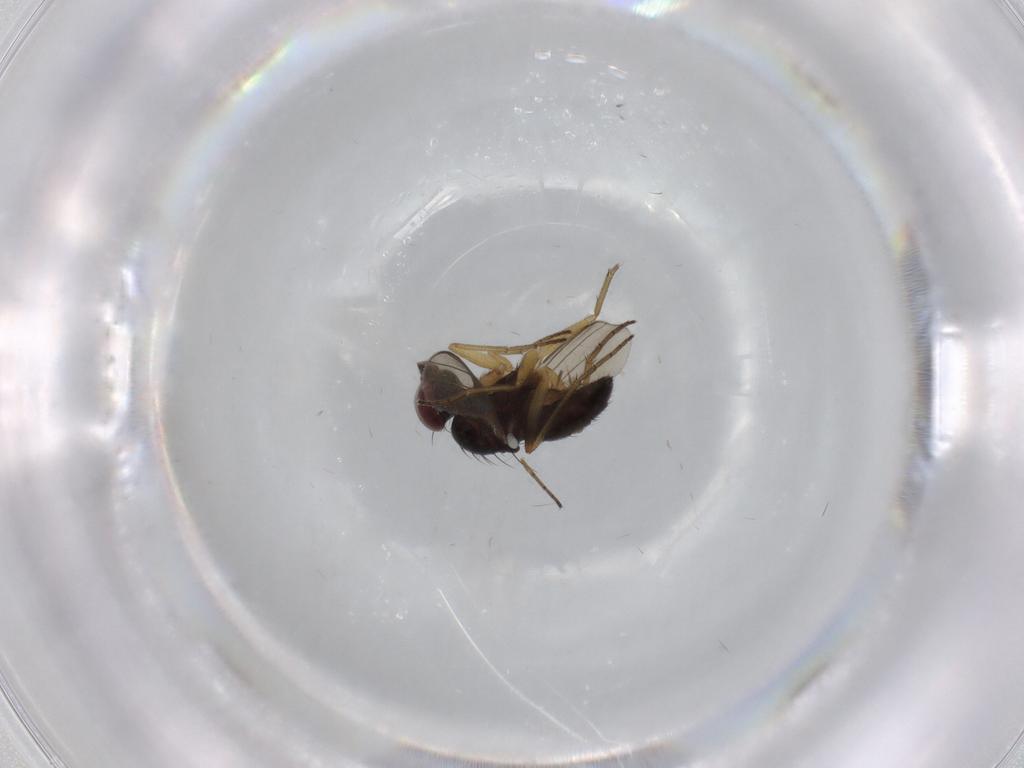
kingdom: Animalia
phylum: Arthropoda
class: Insecta
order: Diptera
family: Dolichopodidae
